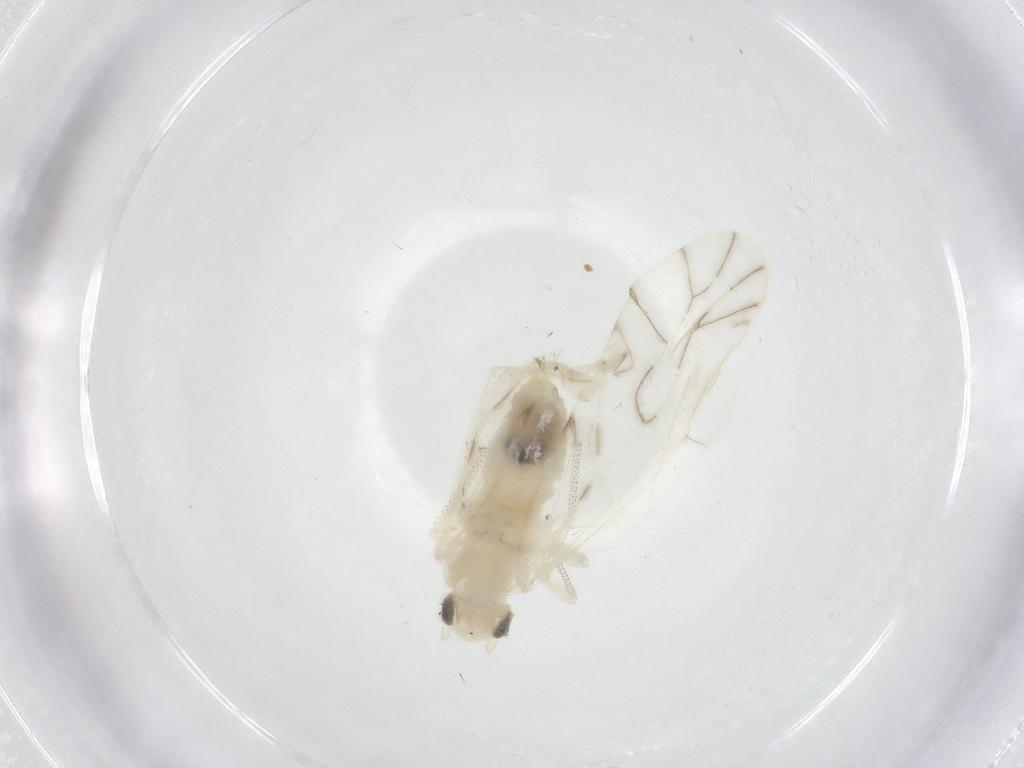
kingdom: Animalia
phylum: Arthropoda
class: Insecta
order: Psocodea
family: Caeciliusidae
